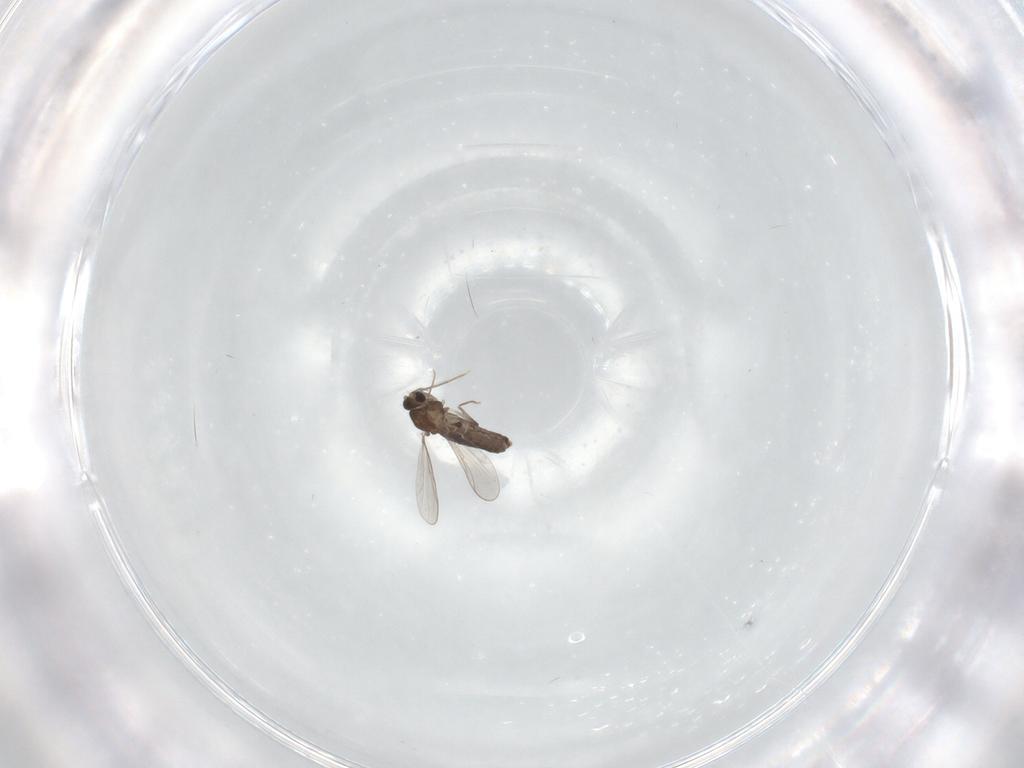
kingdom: Animalia
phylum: Arthropoda
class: Insecta
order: Diptera
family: Chironomidae
